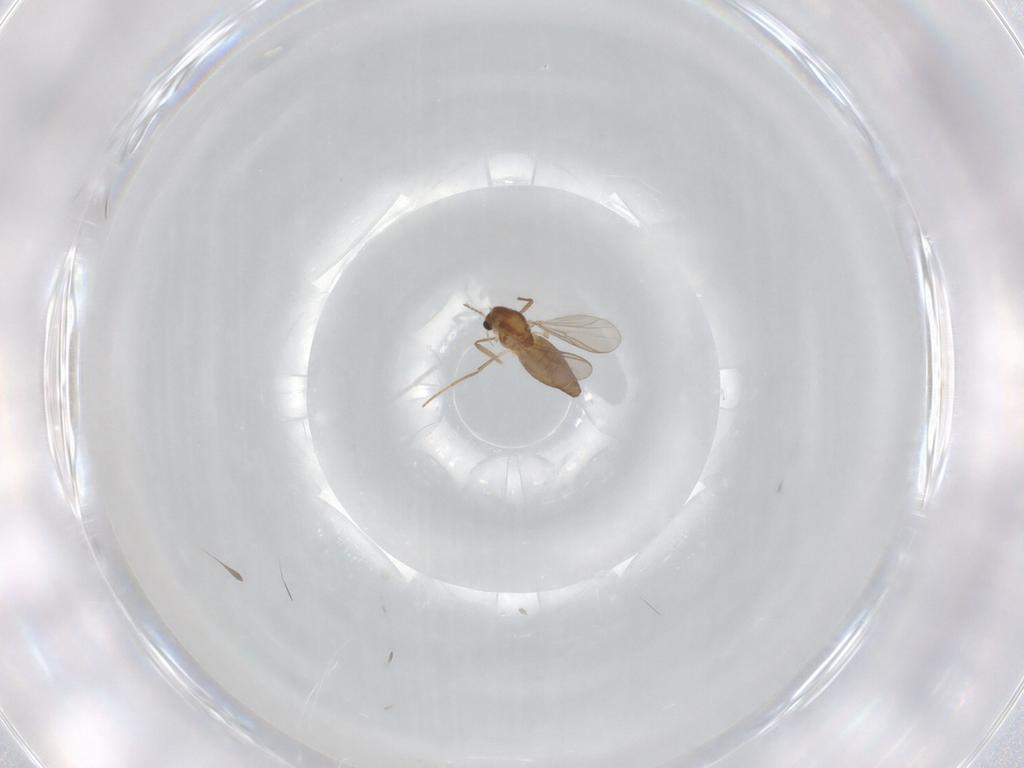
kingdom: Animalia
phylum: Arthropoda
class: Insecta
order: Diptera
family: Chironomidae
